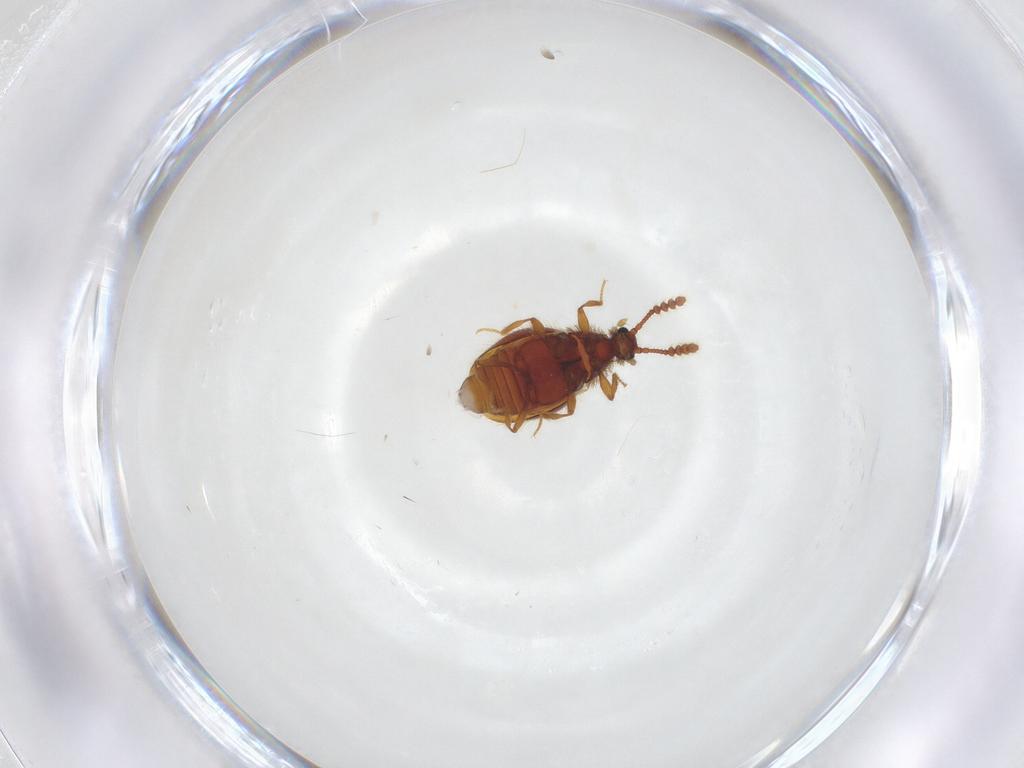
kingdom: Animalia
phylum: Arthropoda
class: Insecta
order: Coleoptera
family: Staphylinidae
